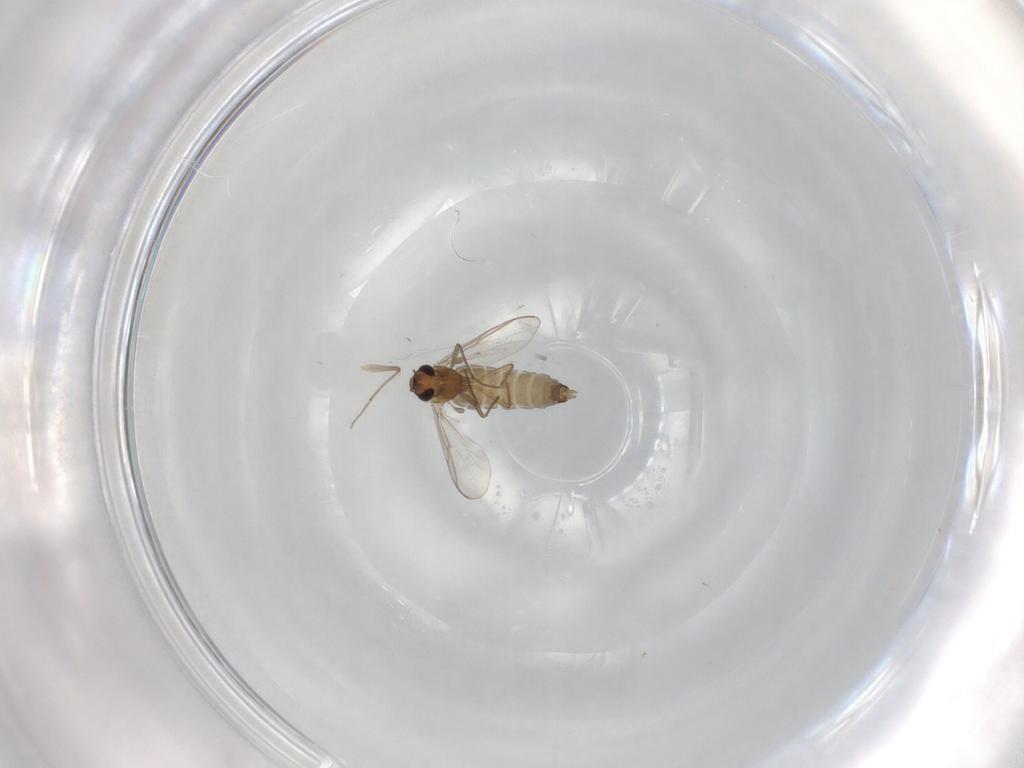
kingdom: Animalia
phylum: Arthropoda
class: Insecta
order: Diptera
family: Chironomidae
